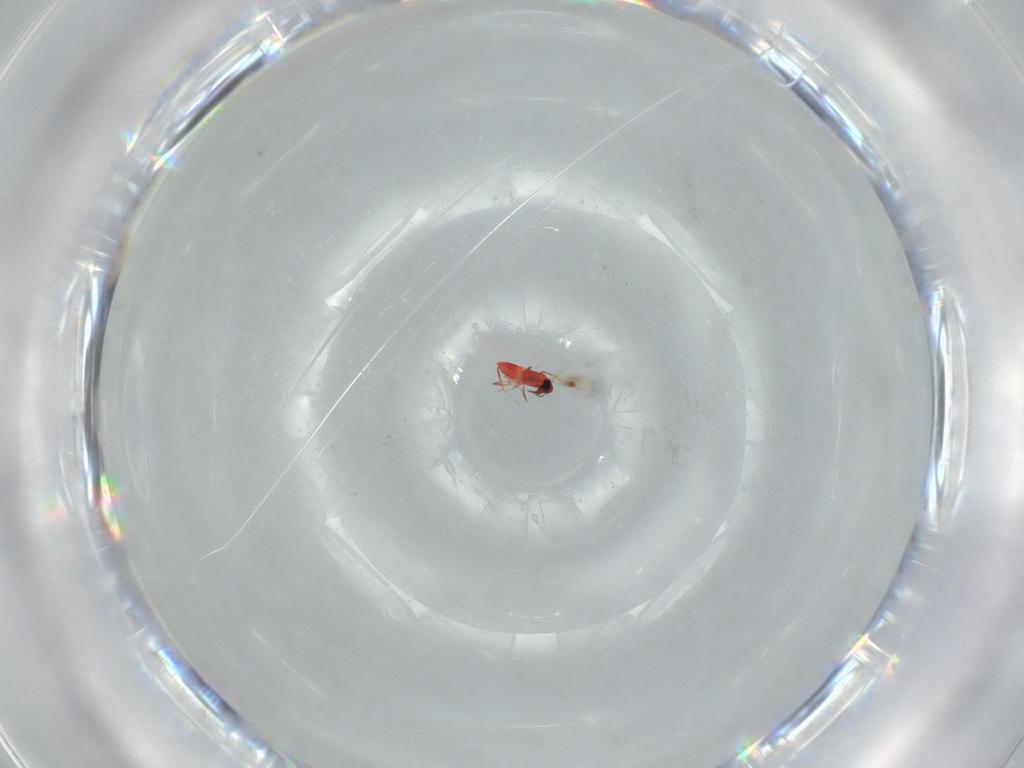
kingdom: Animalia
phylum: Arthropoda
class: Insecta
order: Hymenoptera
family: Trichogrammatidae
